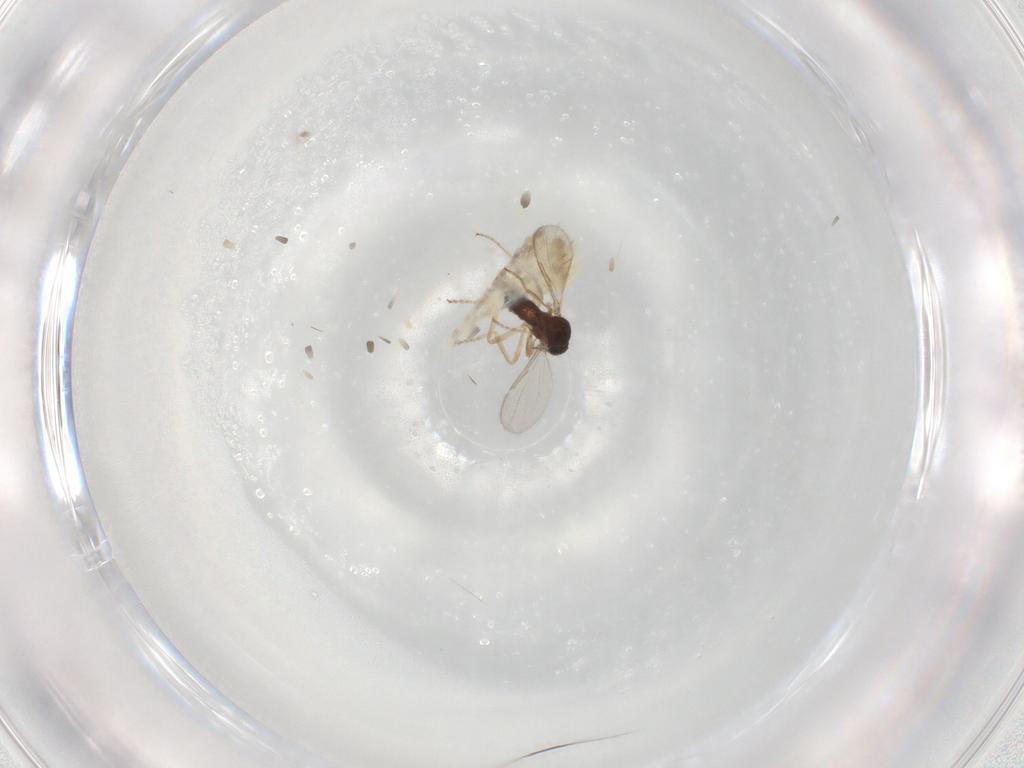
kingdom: Animalia
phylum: Arthropoda
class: Insecta
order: Diptera
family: Ceratopogonidae
